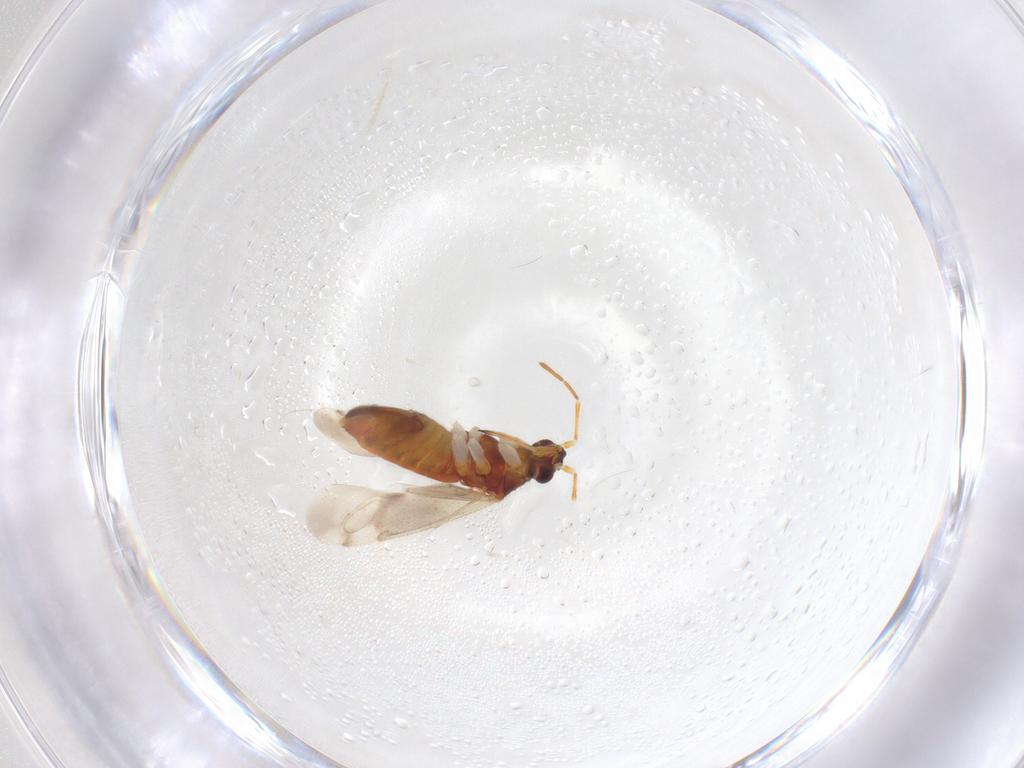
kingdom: Animalia
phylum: Arthropoda
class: Insecta
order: Hemiptera
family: Miridae
